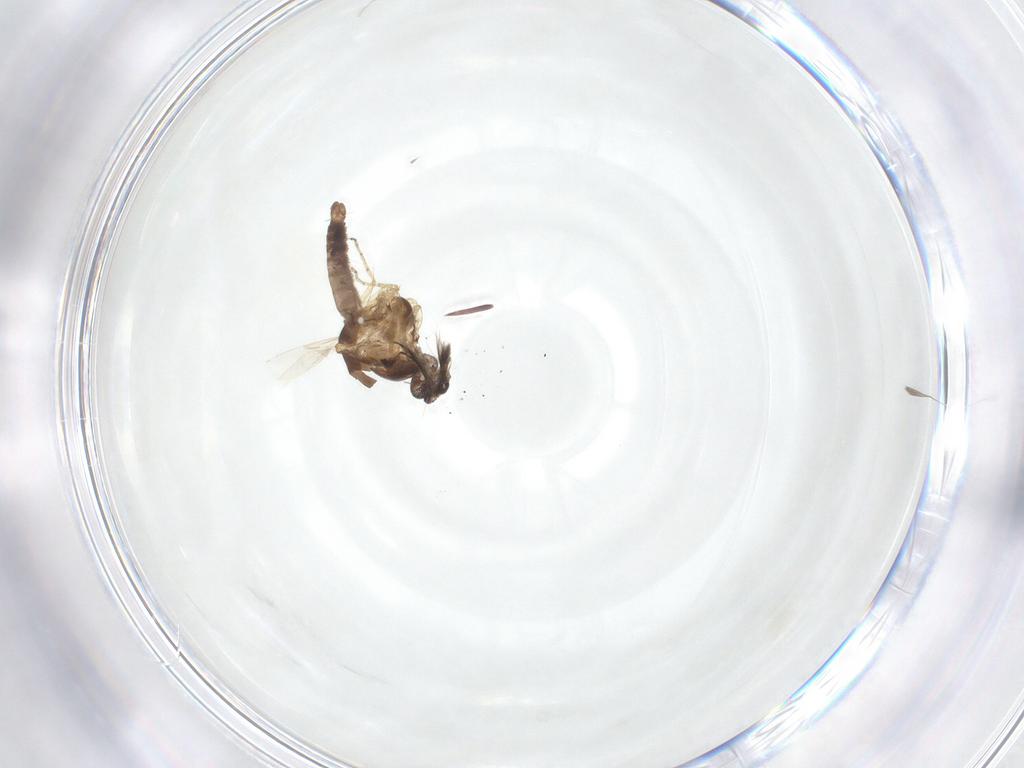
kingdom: Animalia
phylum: Arthropoda
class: Insecta
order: Diptera
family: Ceratopogonidae
